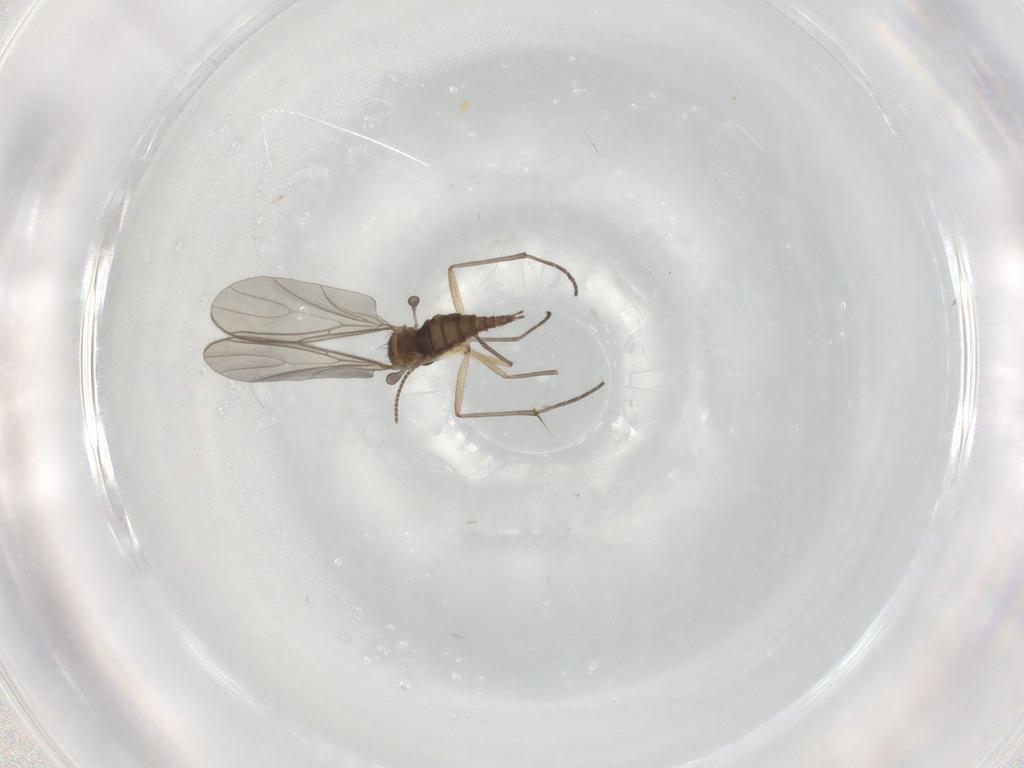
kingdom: Animalia
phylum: Arthropoda
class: Insecta
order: Diptera
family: Sciaridae
